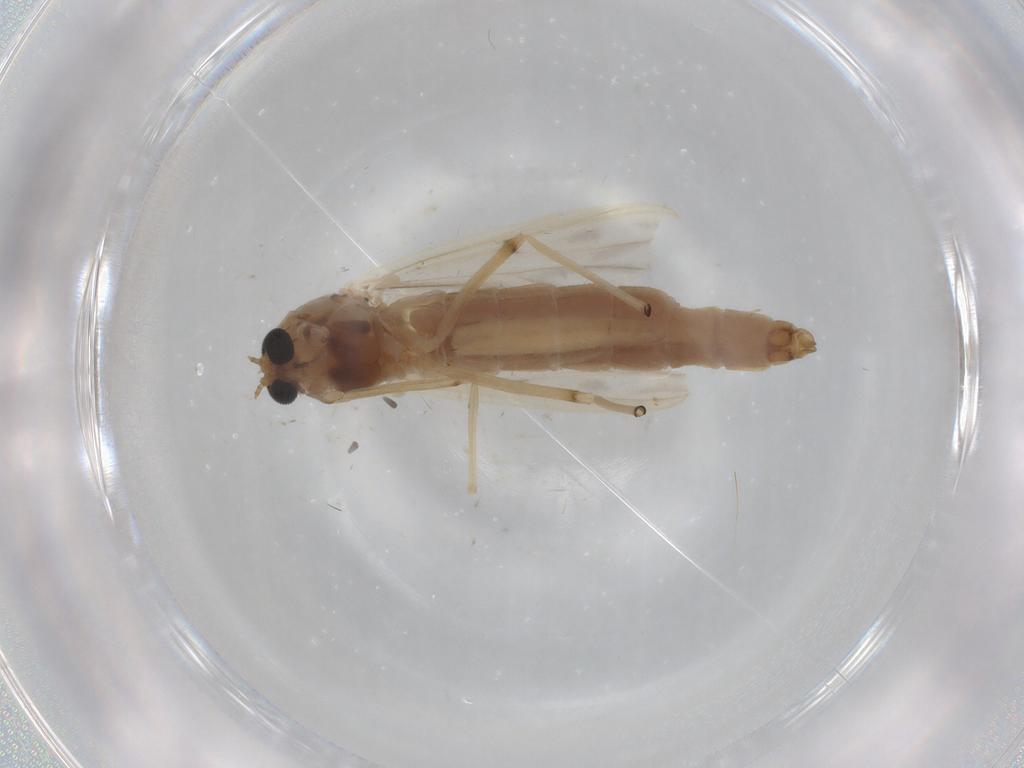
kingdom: Animalia
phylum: Arthropoda
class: Insecta
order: Diptera
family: Chironomidae
